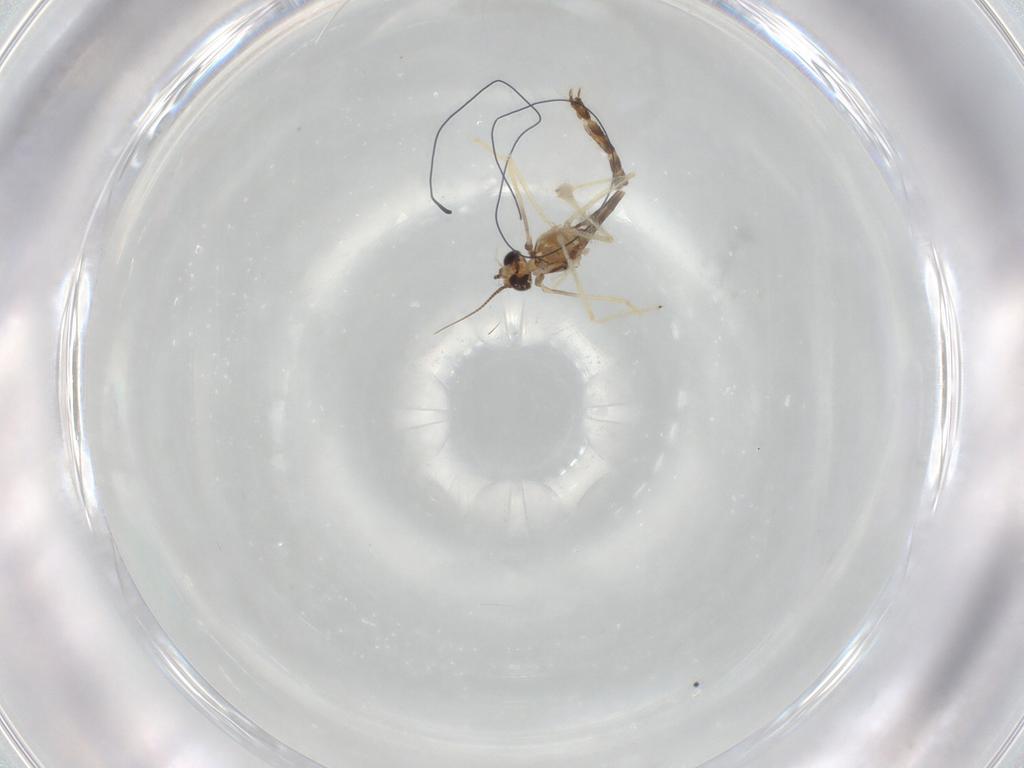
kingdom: Animalia
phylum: Arthropoda
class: Insecta
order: Diptera
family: Chironomidae
